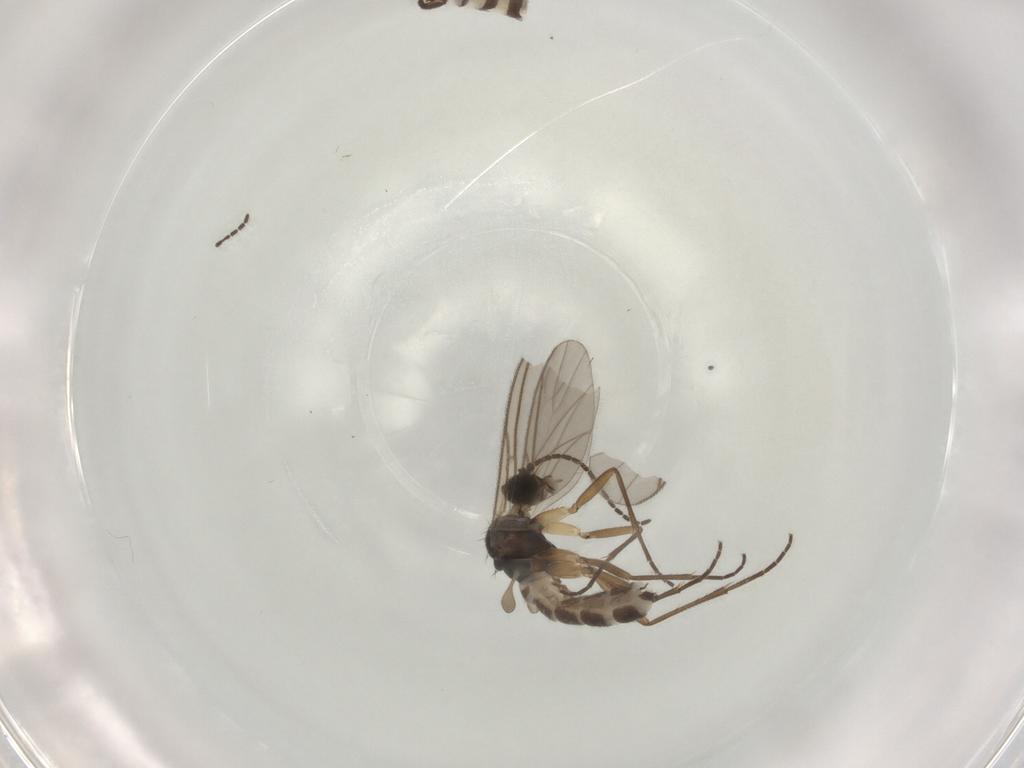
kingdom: Animalia
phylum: Arthropoda
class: Insecta
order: Diptera
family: Sciaridae
